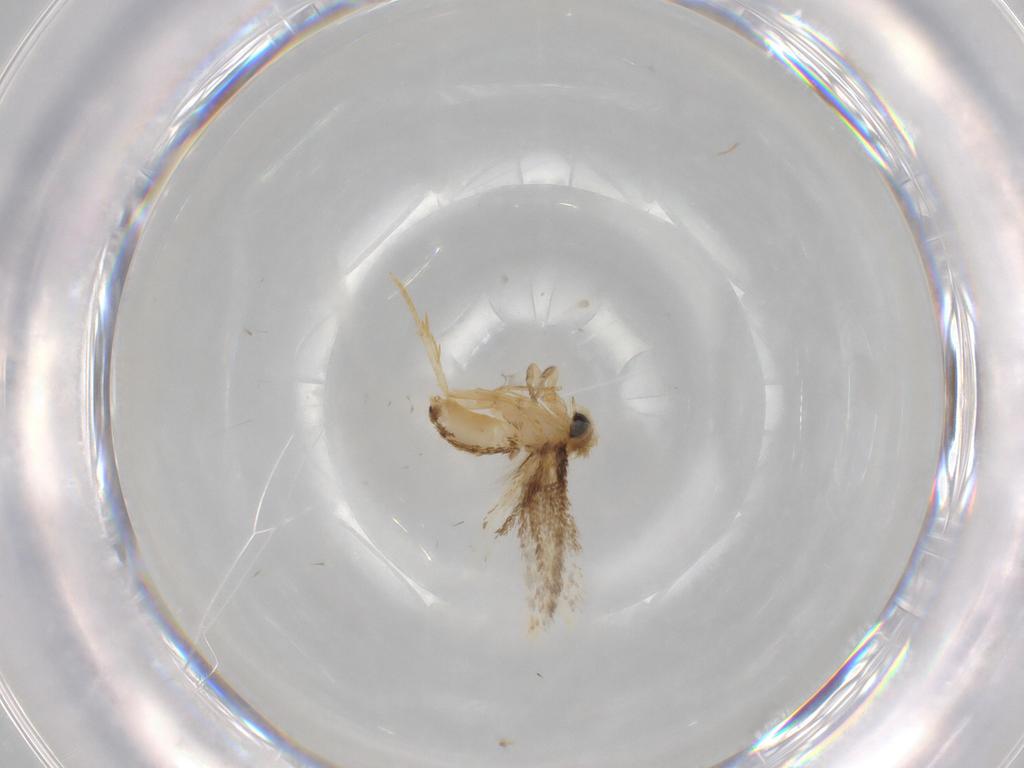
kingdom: Animalia
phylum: Arthropoda
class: Insecta
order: Lepidoptera
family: Nepticulidae
